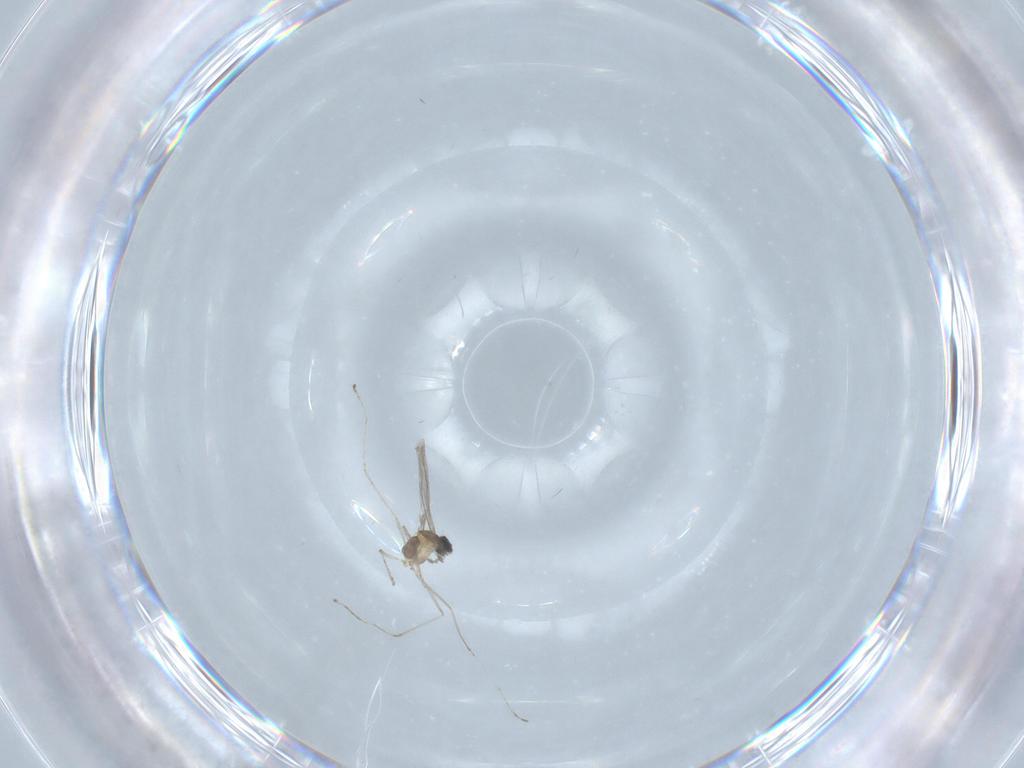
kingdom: Animalia
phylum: Arthropoda
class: Insecta
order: Diptera
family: Cecidomyiidae
